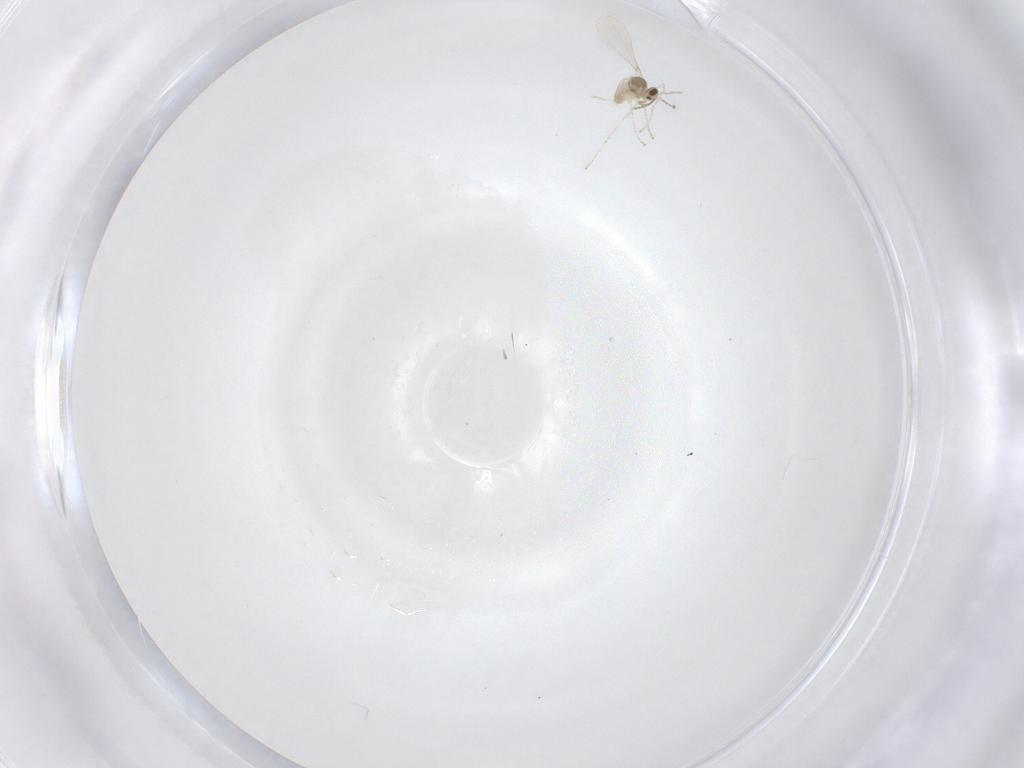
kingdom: Animalia
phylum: Arthropoda
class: Insecta
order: Diptera
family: Cecidomyiidae
